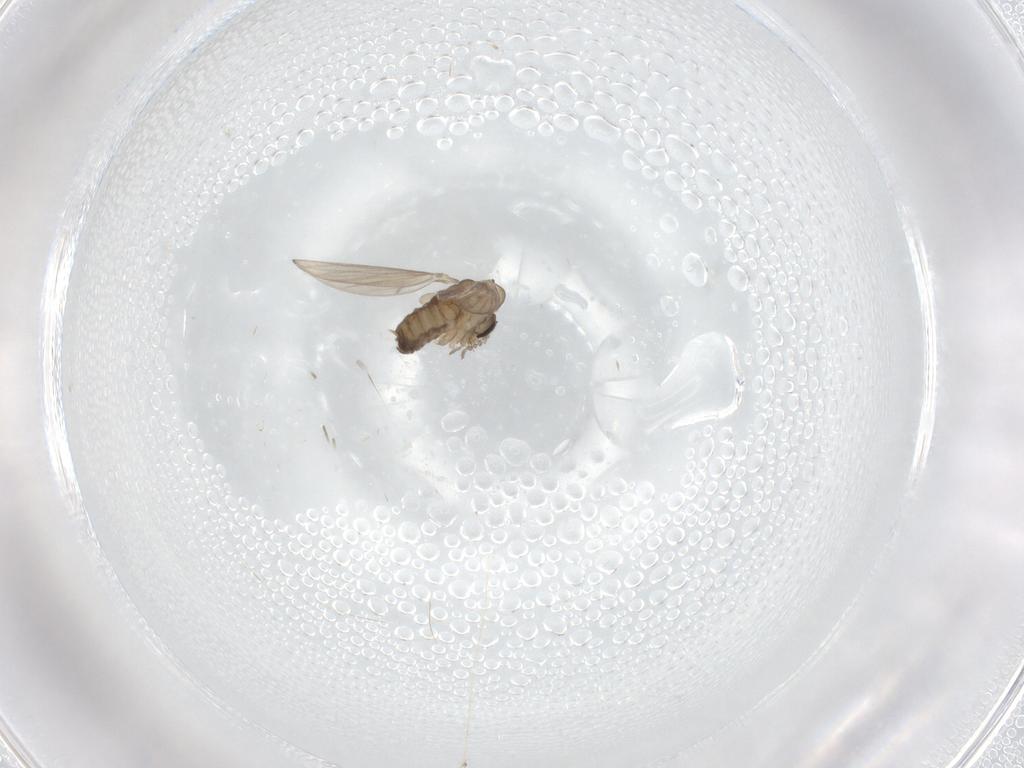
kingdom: Animalia
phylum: Arthropoda
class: Insecta
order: Diptera
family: Psychodidae
